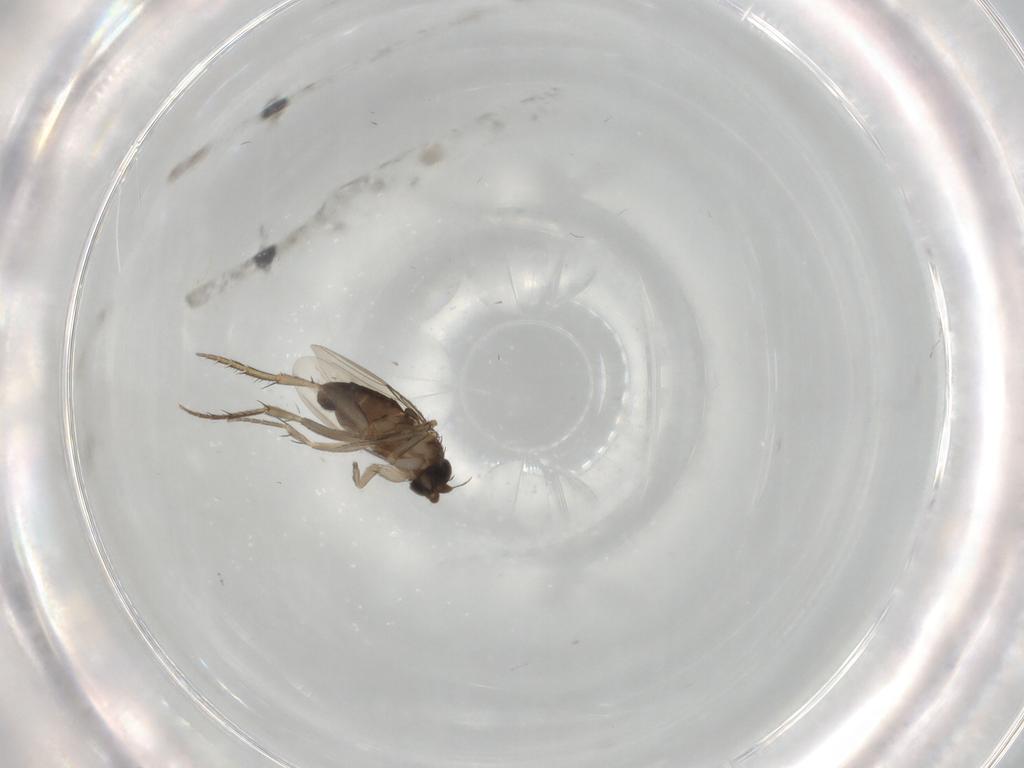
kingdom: Animalia
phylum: Arthropoda
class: Insecta
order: Diptera
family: Phoridae
